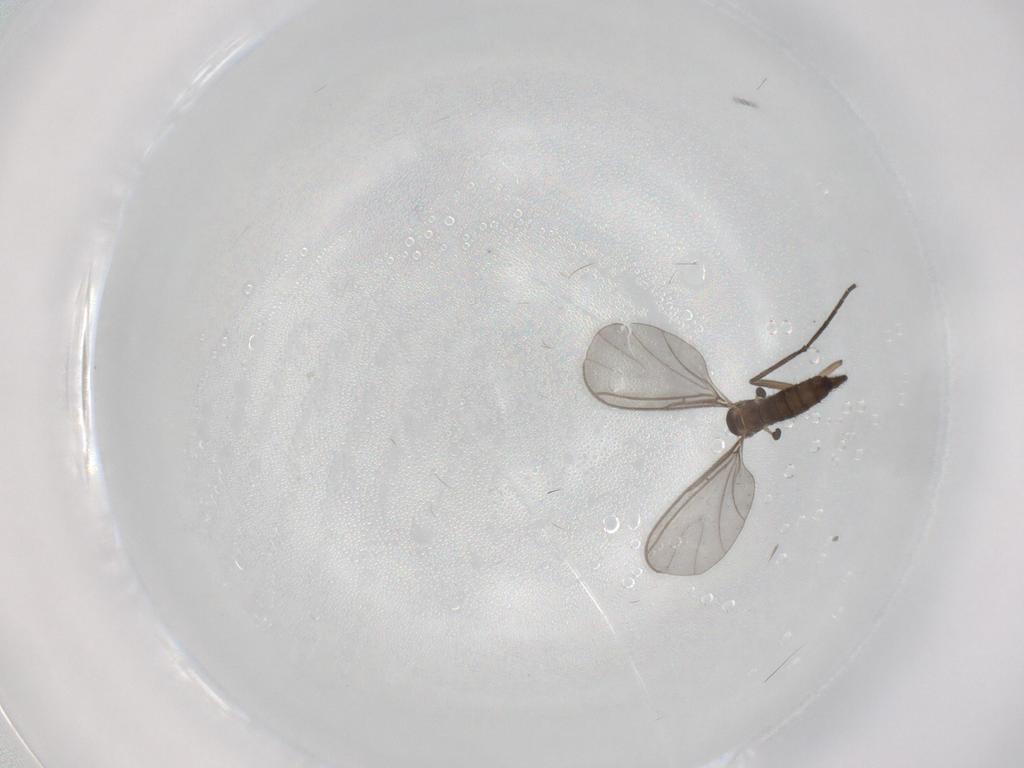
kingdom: Animalia
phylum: Arthropoda
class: Insecta
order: Diptera
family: Sciaridae
